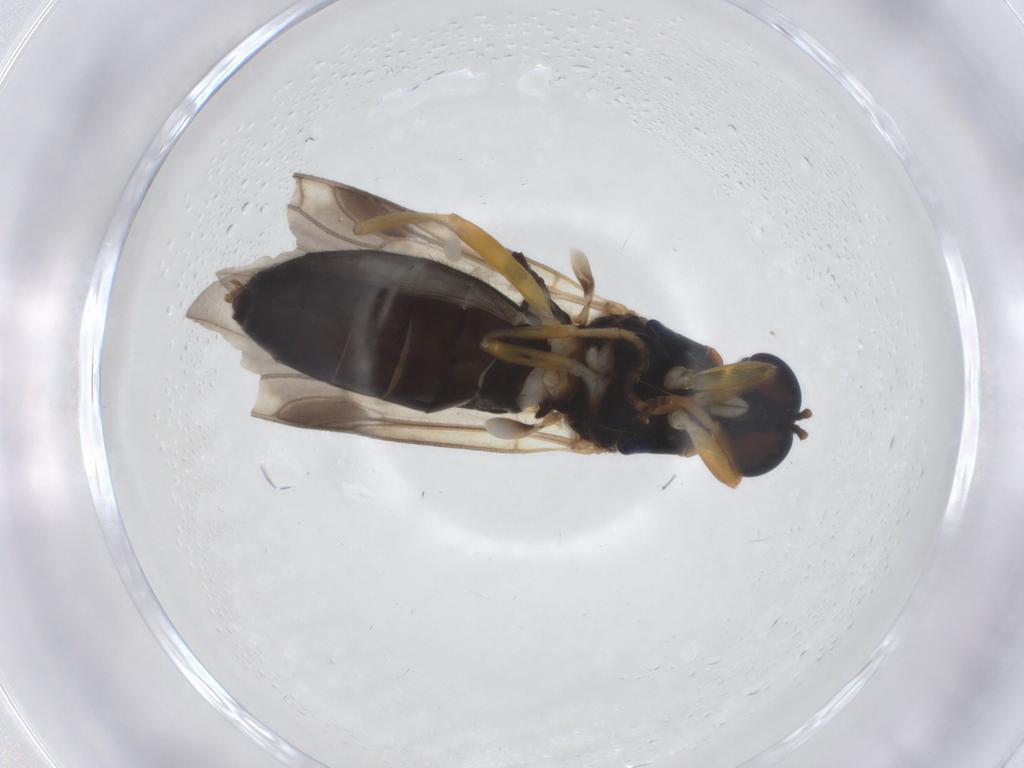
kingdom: Animalia
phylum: Arthropoda
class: Insecta
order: Diptera
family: Stratiomyidae
